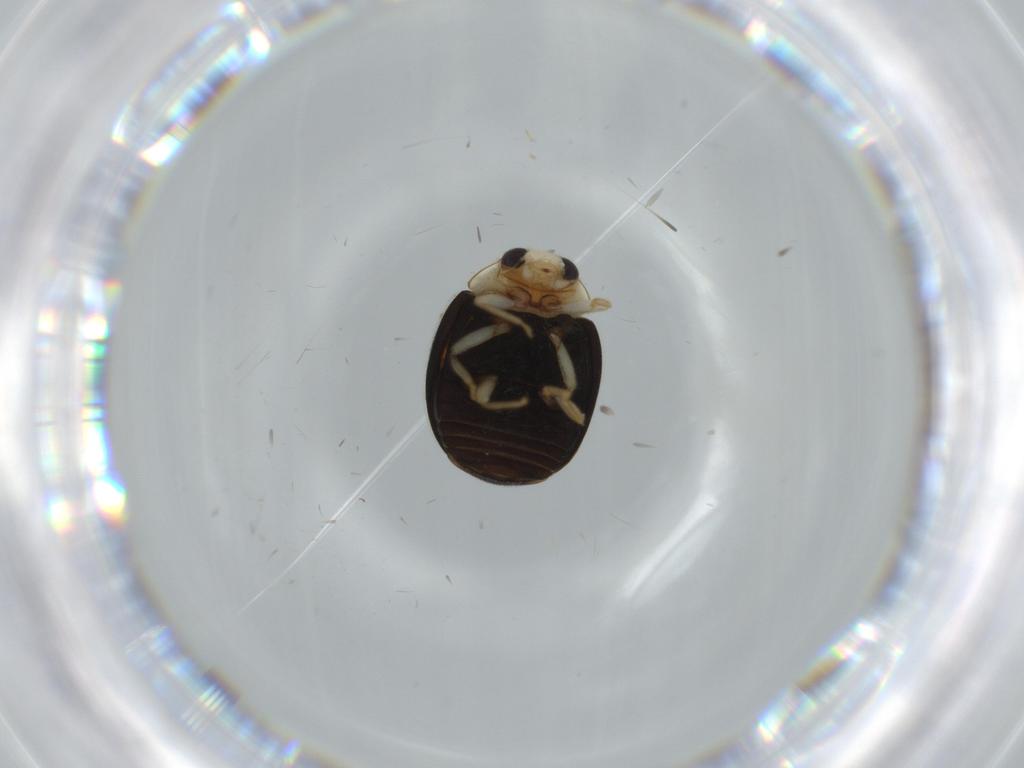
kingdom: Animalia
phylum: Arthropoda
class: Insecta
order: Coleoptera
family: Coccinellidae
